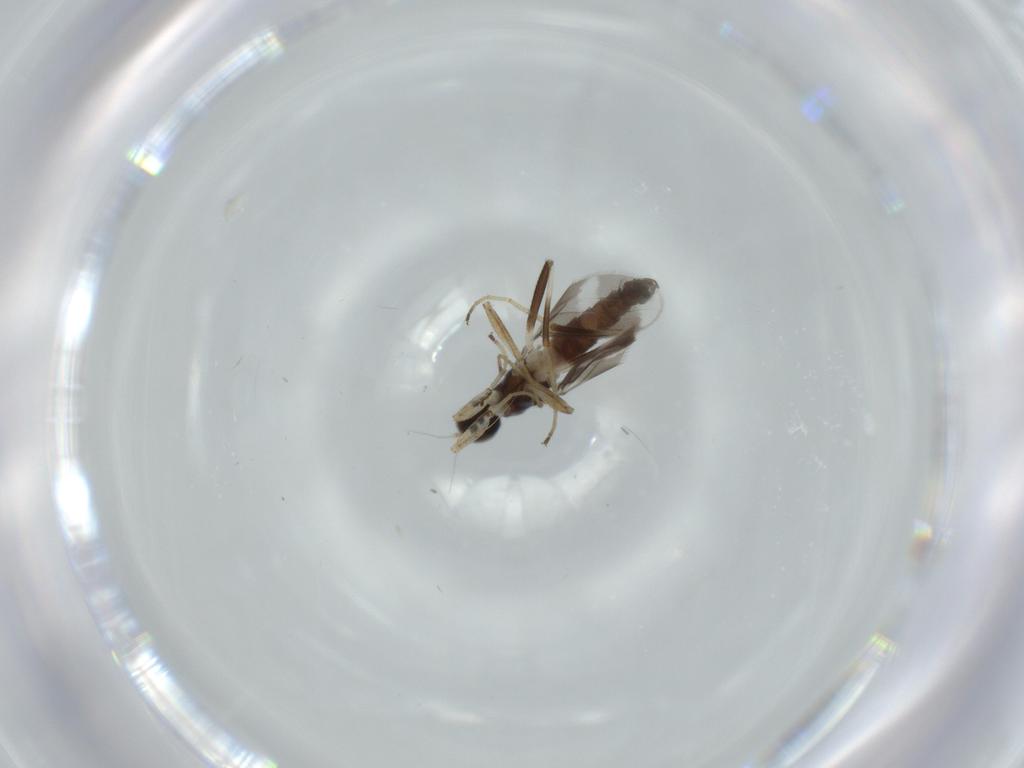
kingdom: Animalia
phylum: Arthropoda
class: Insecta
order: Diptera
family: Hybotidae
